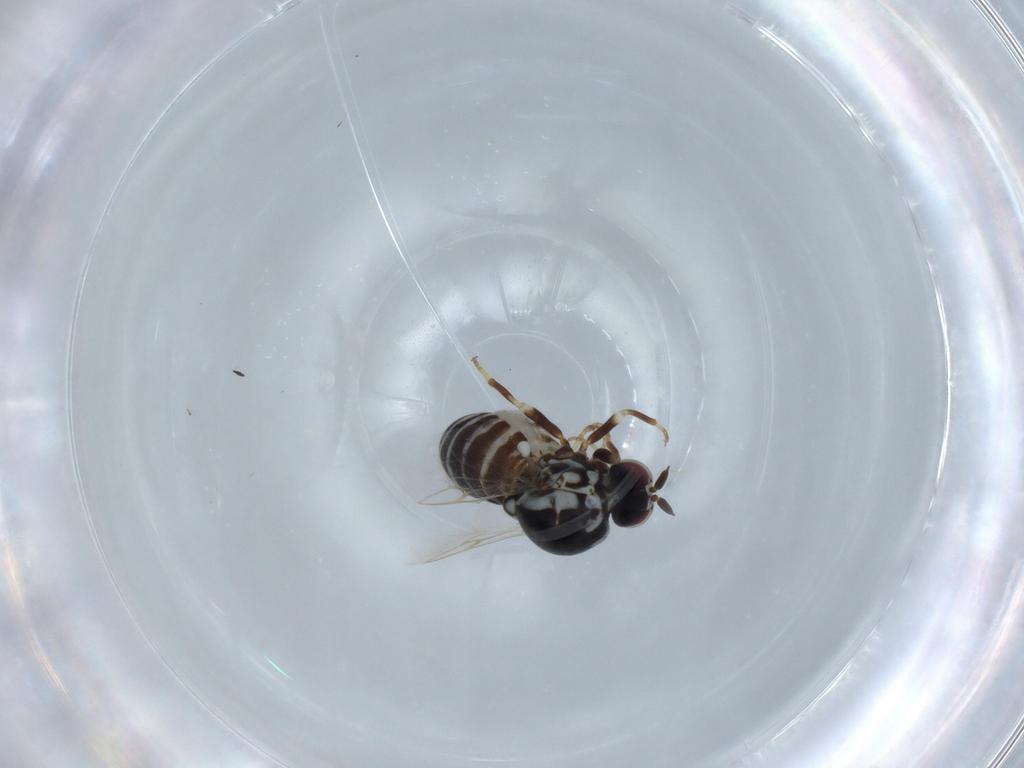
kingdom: Animalia
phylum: Arthropoda
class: Insecta
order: Diptera
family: Bombyliidae
